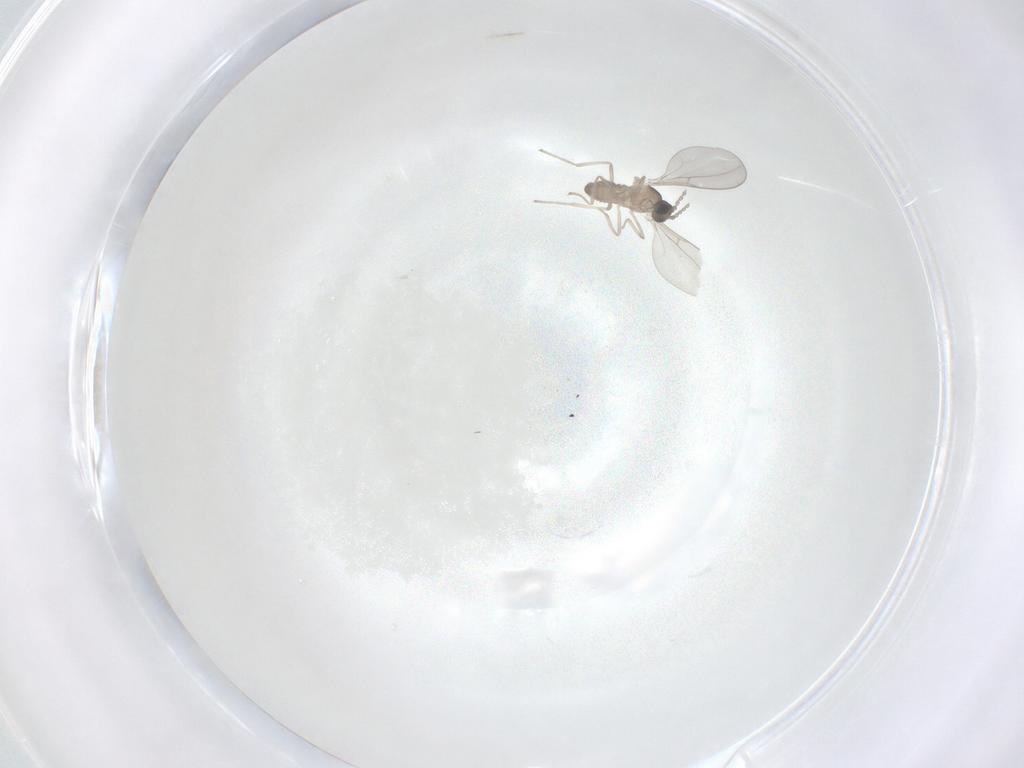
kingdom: Animalia
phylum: Arthropoda
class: Insecta
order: Diptera
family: Cecidomyiidae
